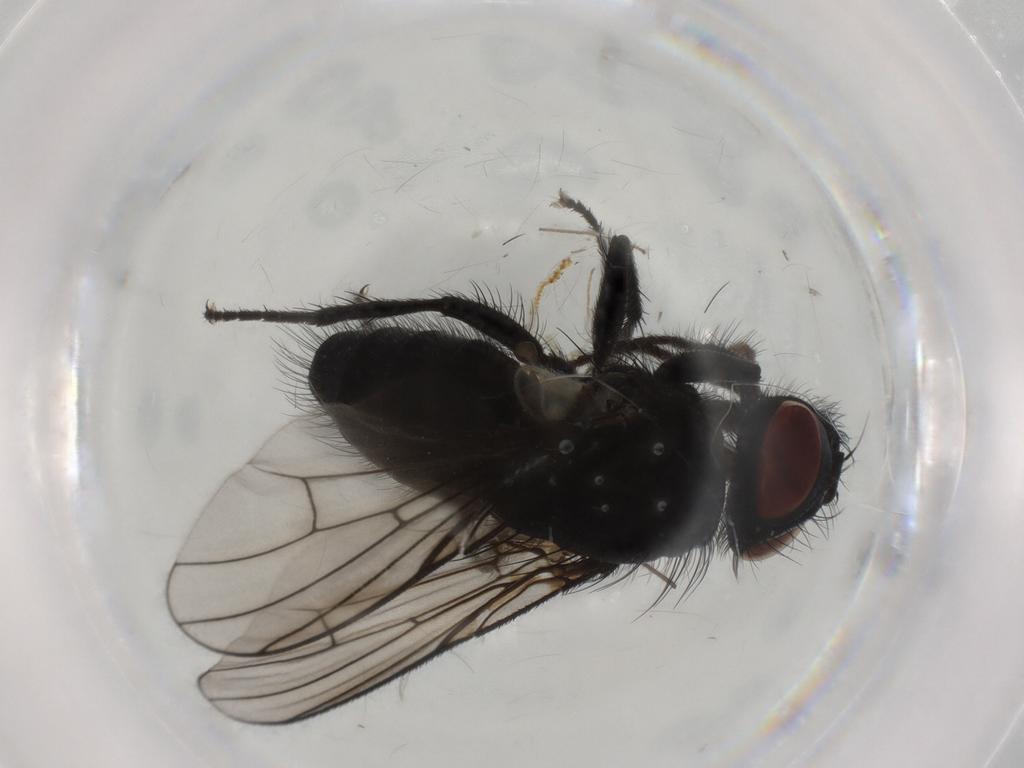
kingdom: Animalia
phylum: Arthropoda
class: Insecta
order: Diptera
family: Muscidae
